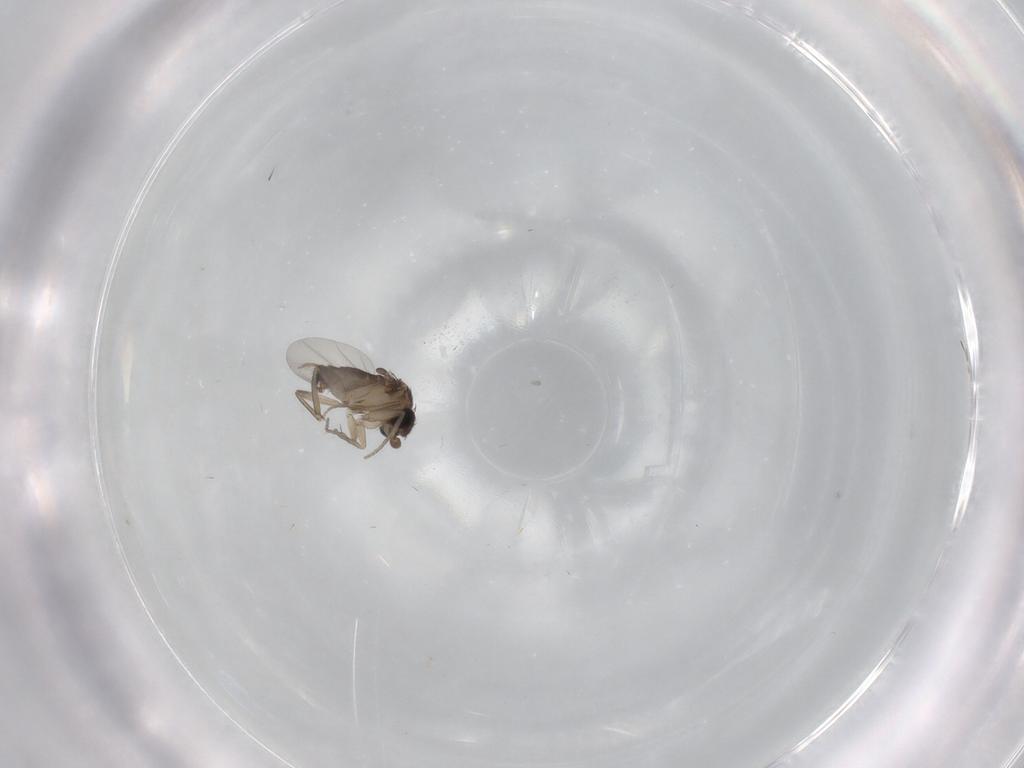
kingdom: Animalia
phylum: Arthropoda
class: Insecta
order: Diptera
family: Phoridae
